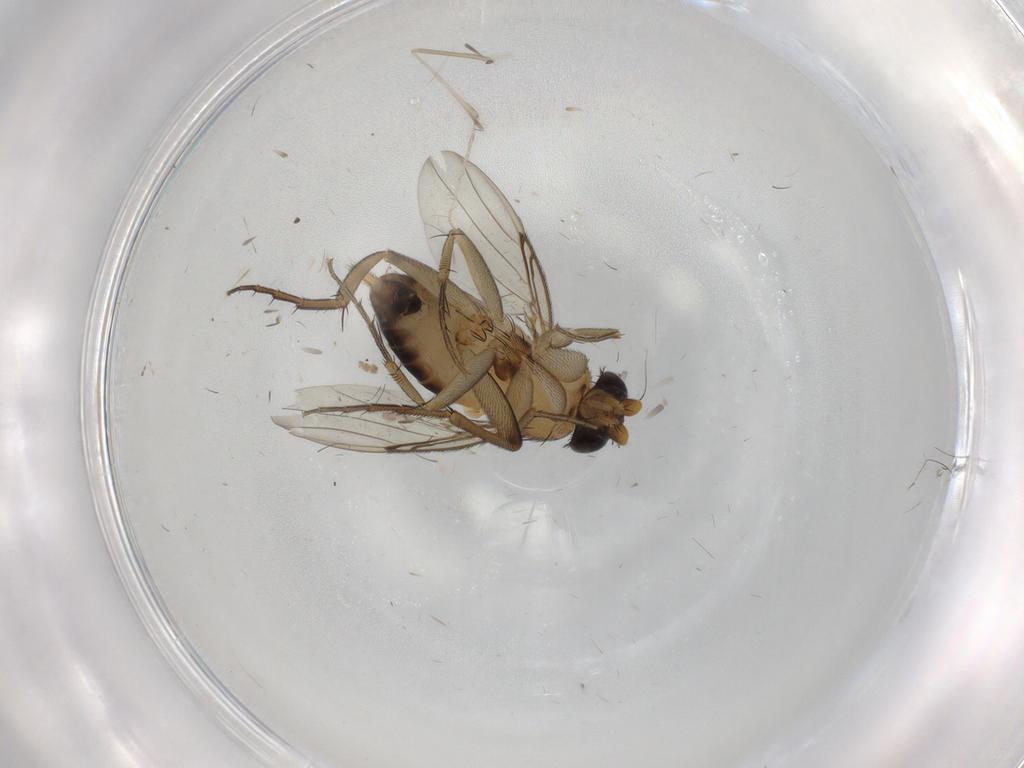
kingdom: Animalia
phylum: Arthropoda
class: Insecta
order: Diptera
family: Phoridae
